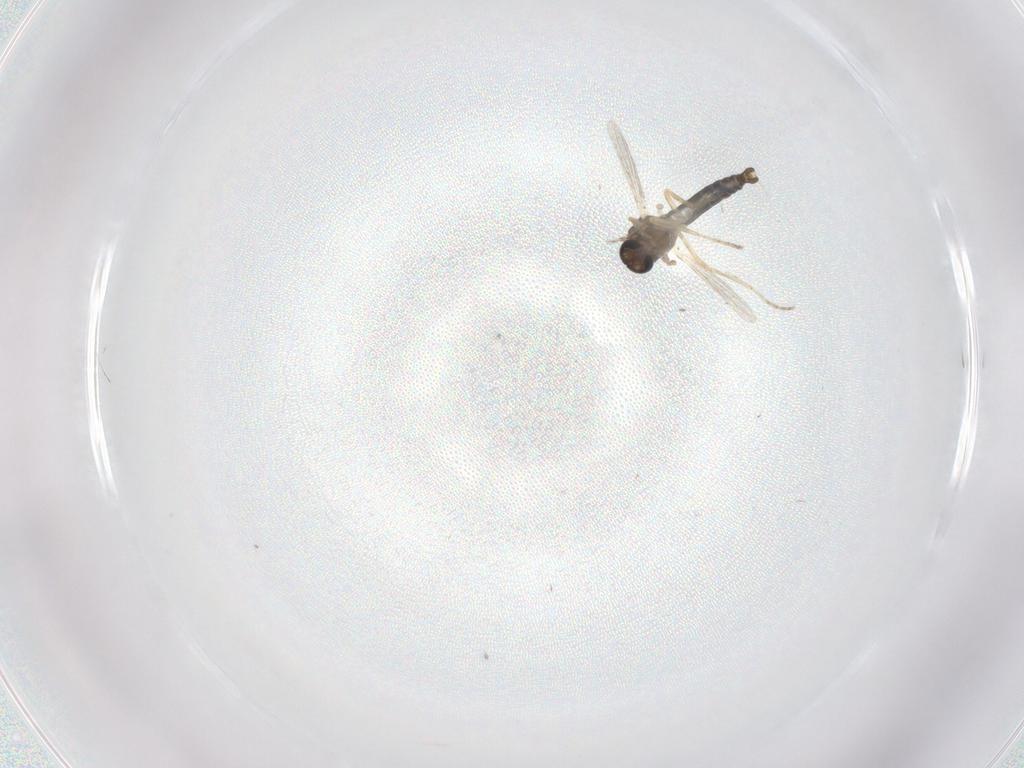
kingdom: Animalia
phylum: Arthropoda
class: Insecta
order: Diptera
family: Ceratopogonidae
